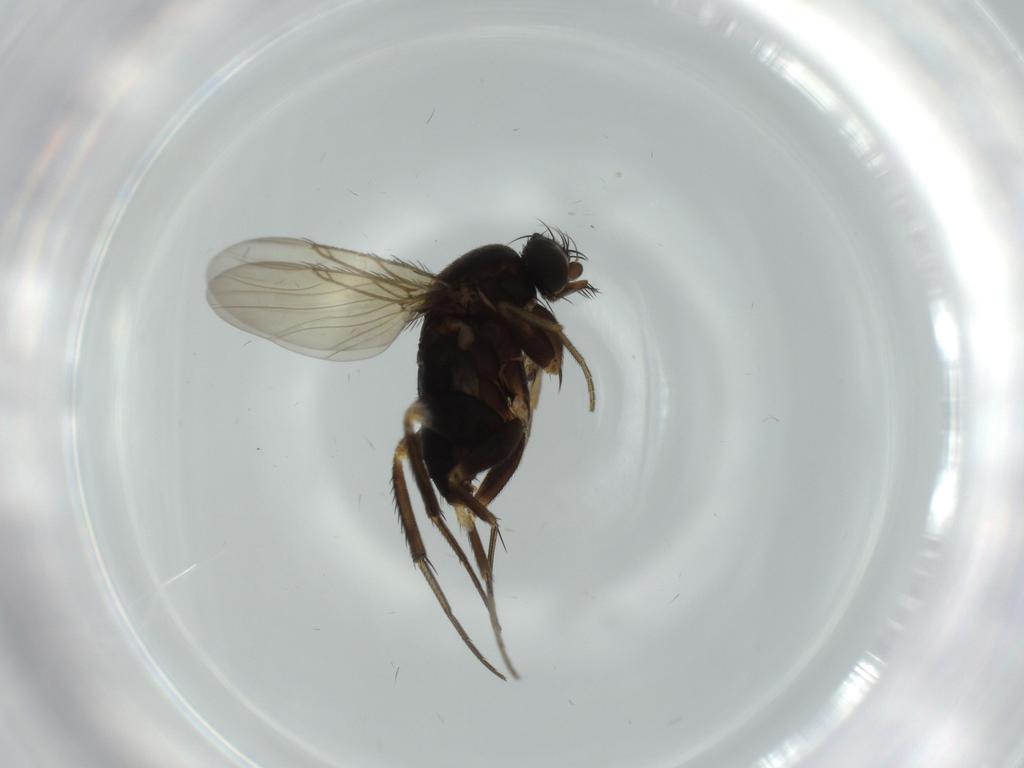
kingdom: Animalia
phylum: Arthropoda
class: Insecta
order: Diptera
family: Phoridae
